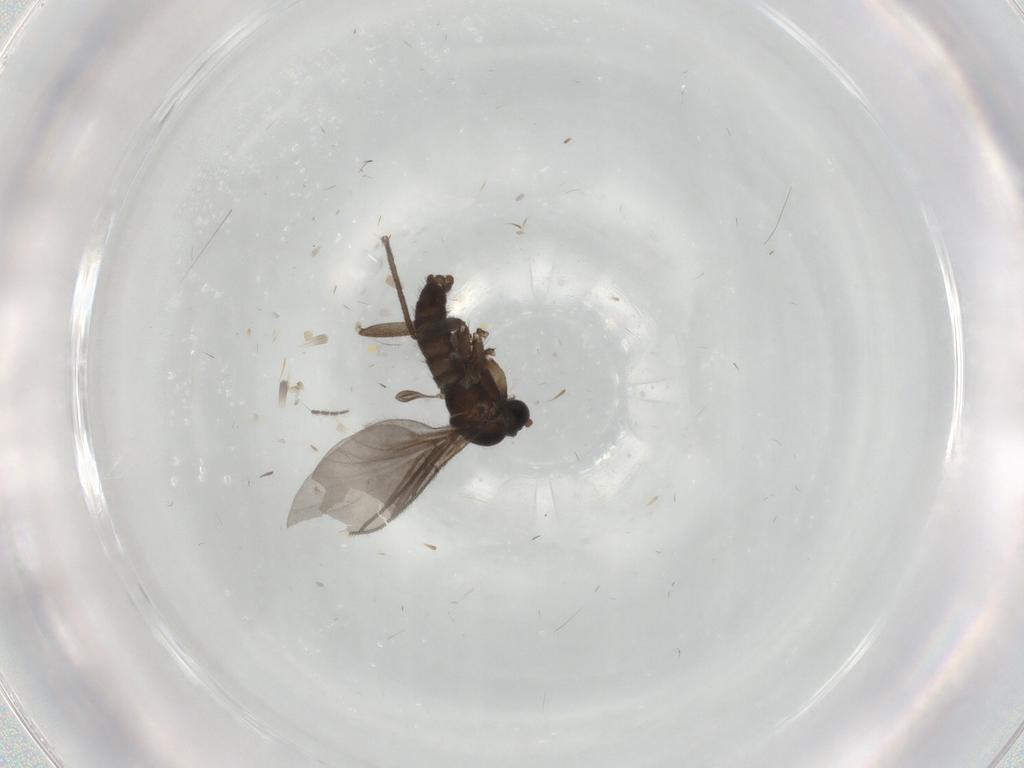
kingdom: Animalia
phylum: Arthropoda
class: Insecta
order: Diptera
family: Sciaridae
